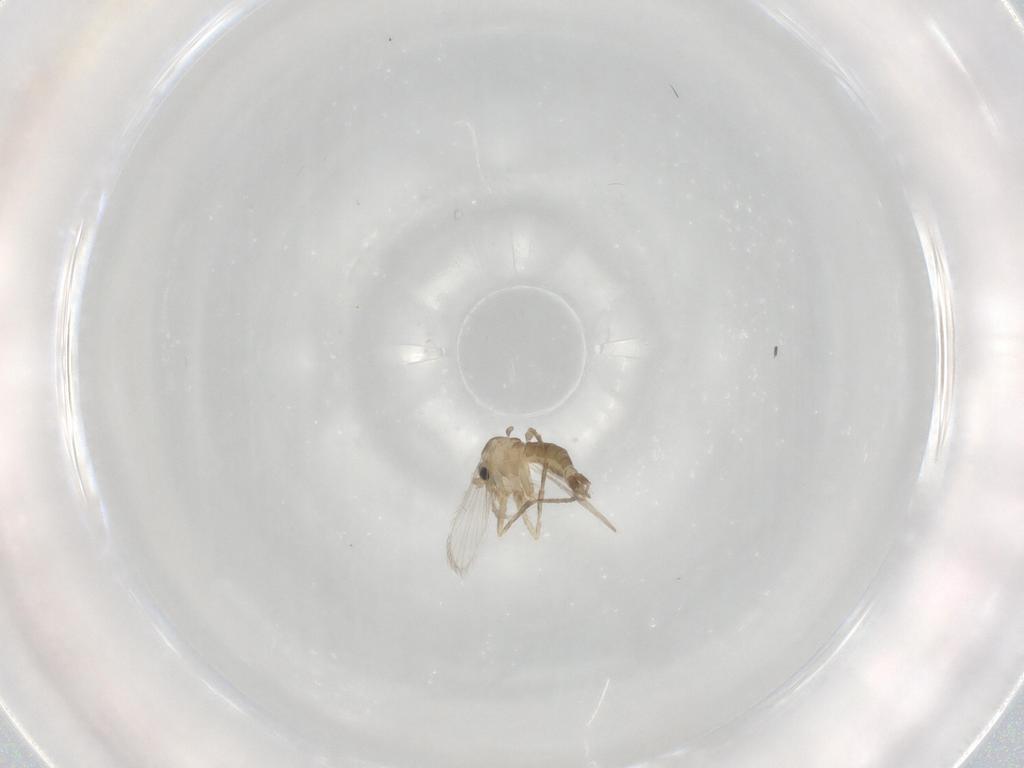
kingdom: Animalia
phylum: Arthropoda
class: Insecta
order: Diptera
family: Psychodidae
